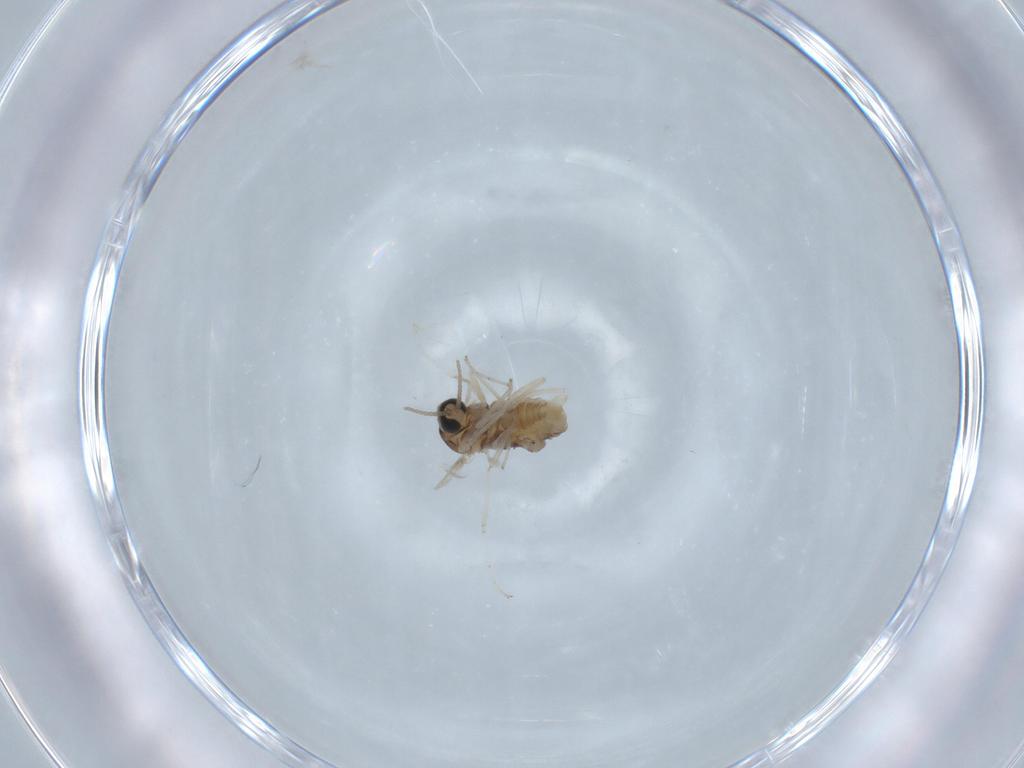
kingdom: Animalia
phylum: Arthropoda
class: Insecta
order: Diptera
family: Cecidomyiidae
